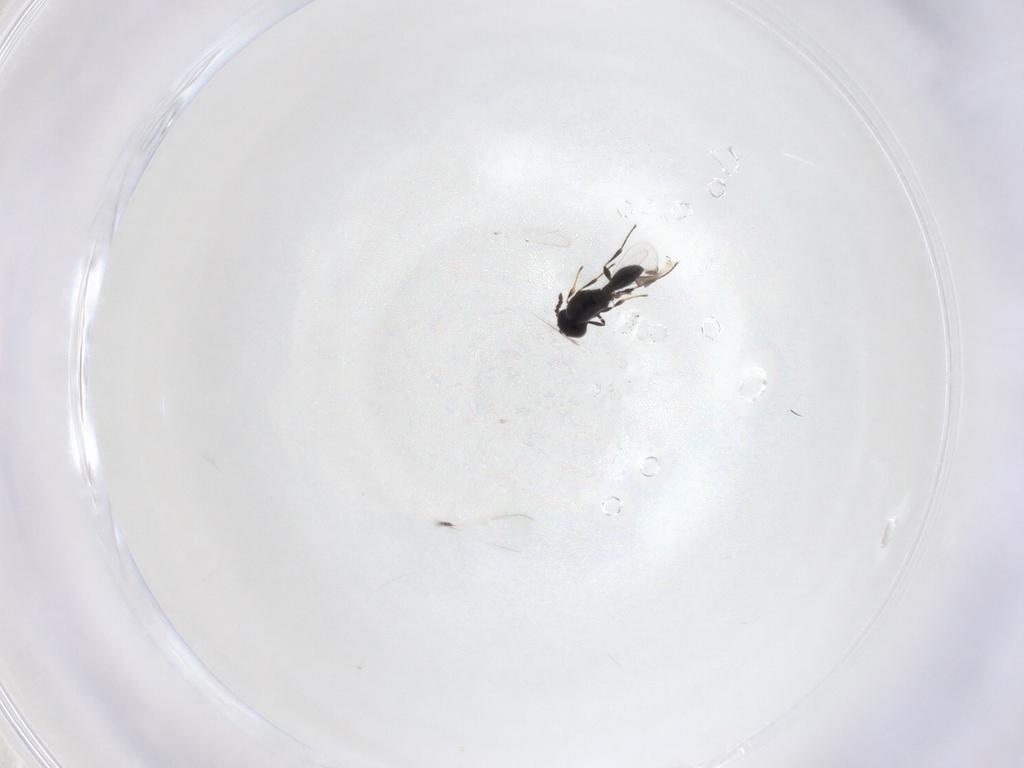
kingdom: Animalia
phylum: Arthropoda
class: Insecta
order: Hymenoptera
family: Platygastridae
